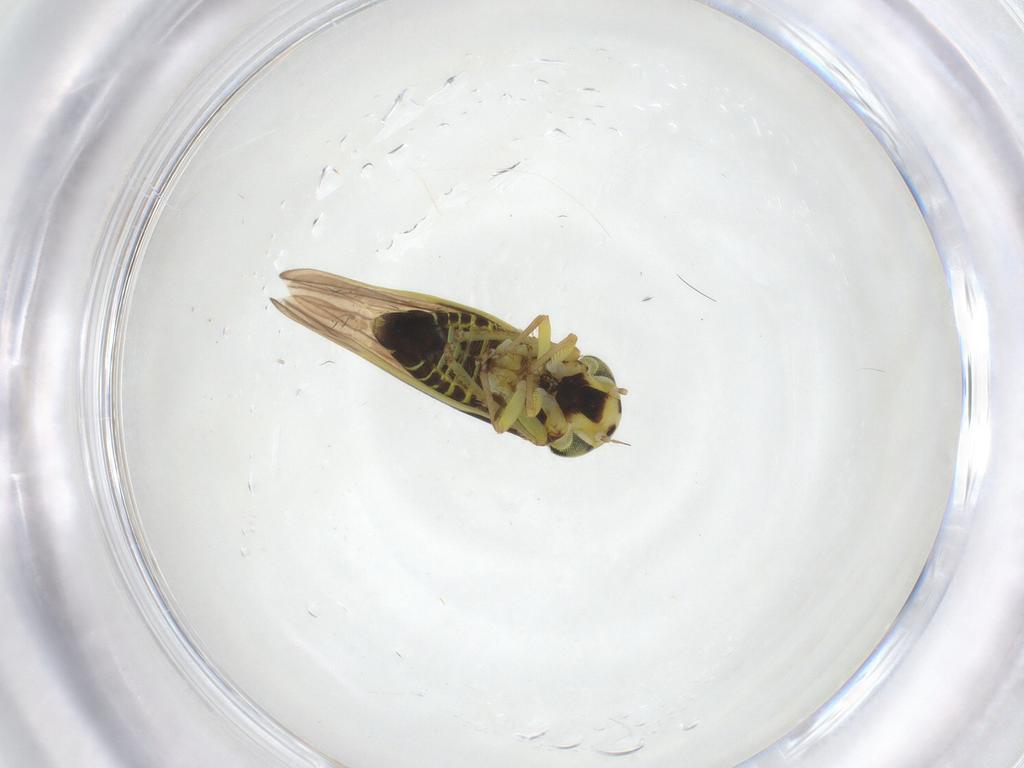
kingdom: Animalia
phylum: Arthropoda
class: Insecta
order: Hemiptera
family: Cicadellidae
